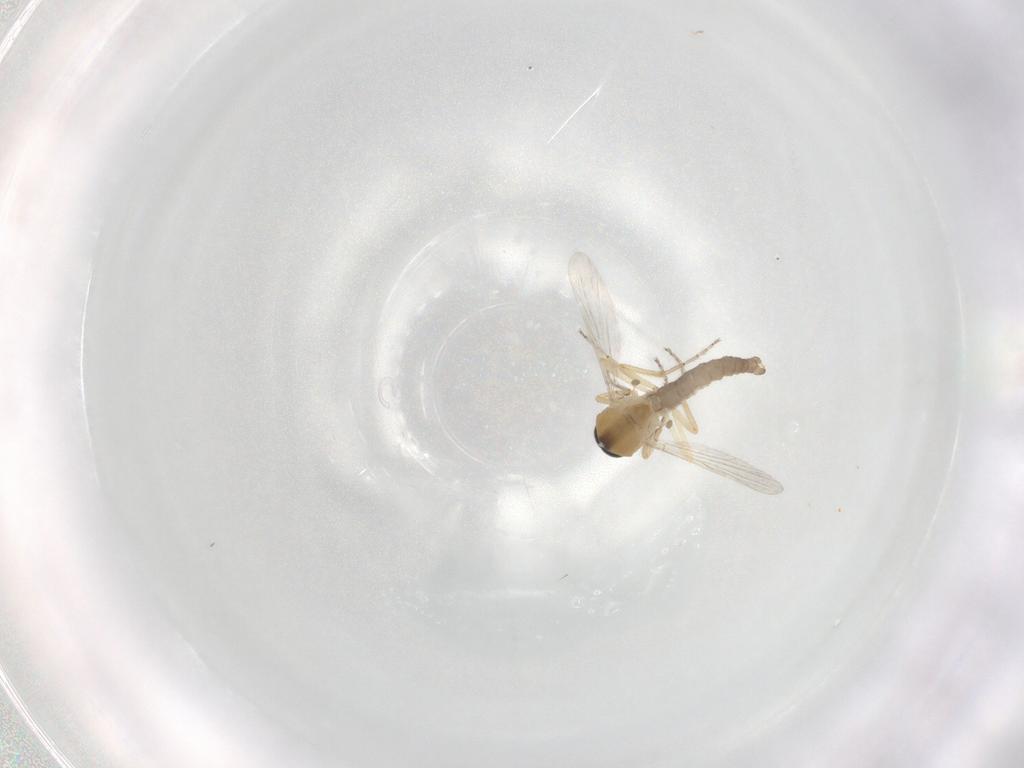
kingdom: Animalia
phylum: Arthropoda
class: Insecta
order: Diptera
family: Ceratopogonidae
